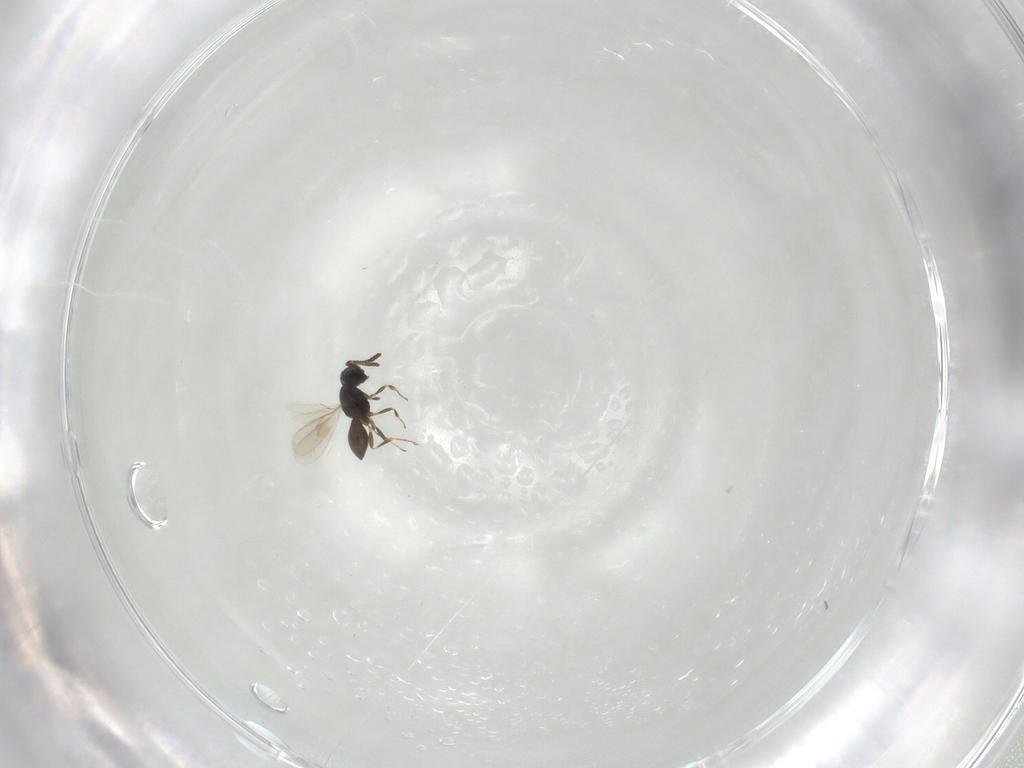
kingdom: Animalia
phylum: Arthropoda
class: Insecta
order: Hymenoptera
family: Scelionidae
